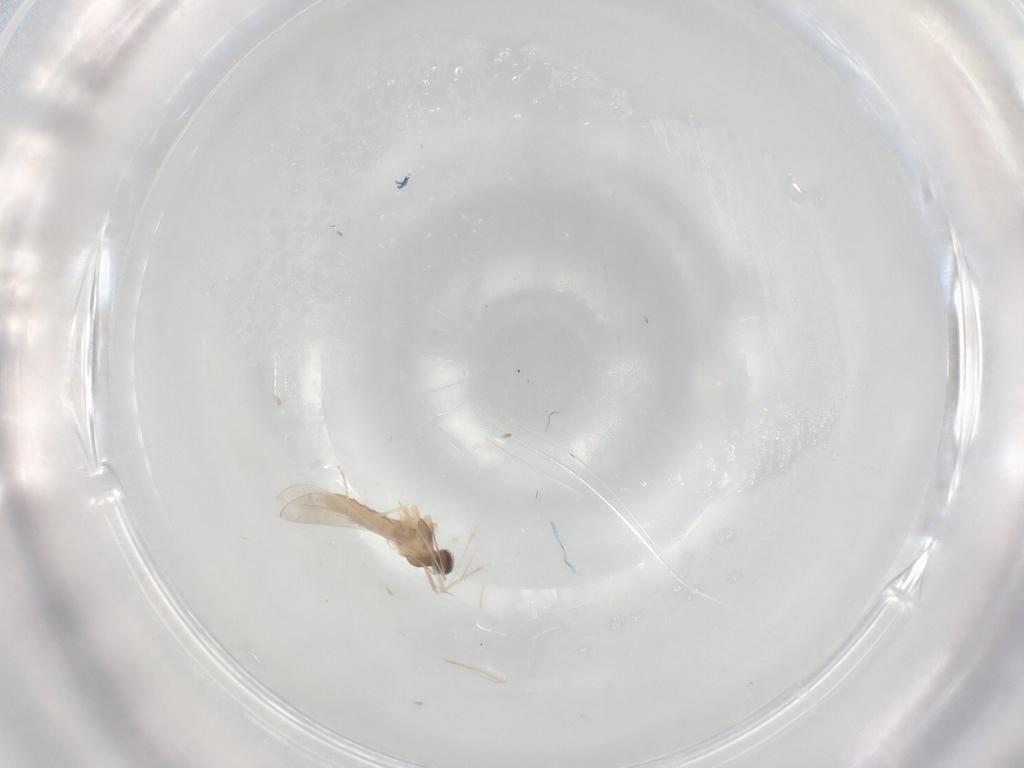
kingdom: Animalia
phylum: Arthropoda
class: Insecta
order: Diptera
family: Cecidomyiidae
